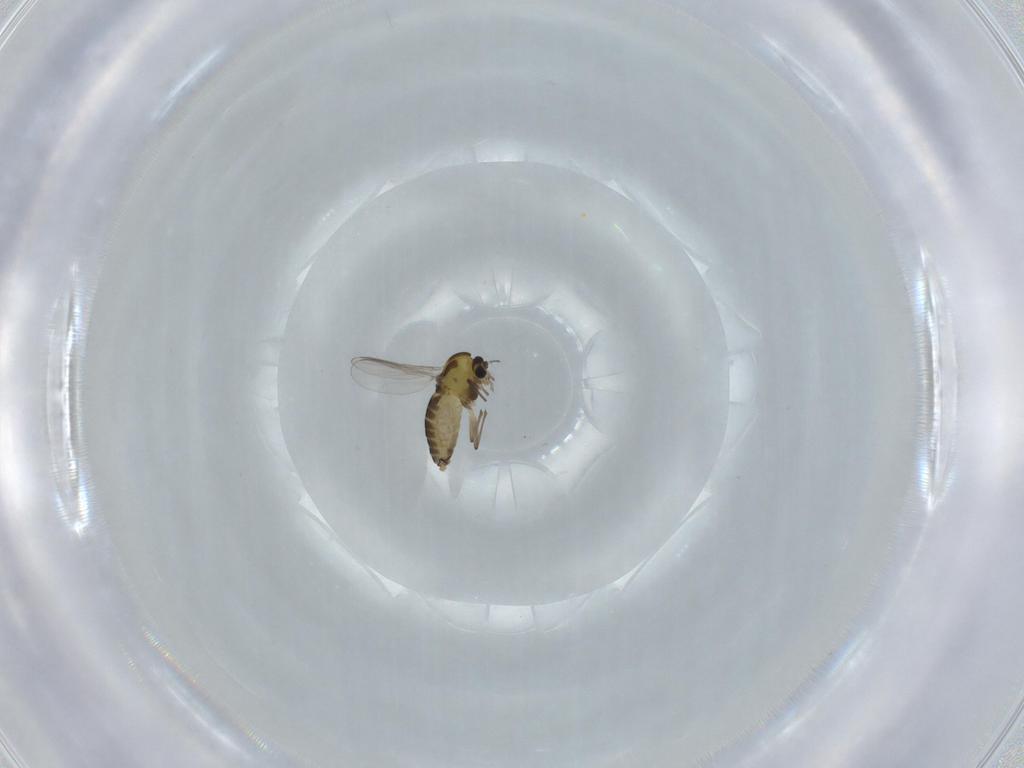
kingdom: Animalia
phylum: Arthropoda
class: Insecta
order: Diptera
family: Chironomidae
